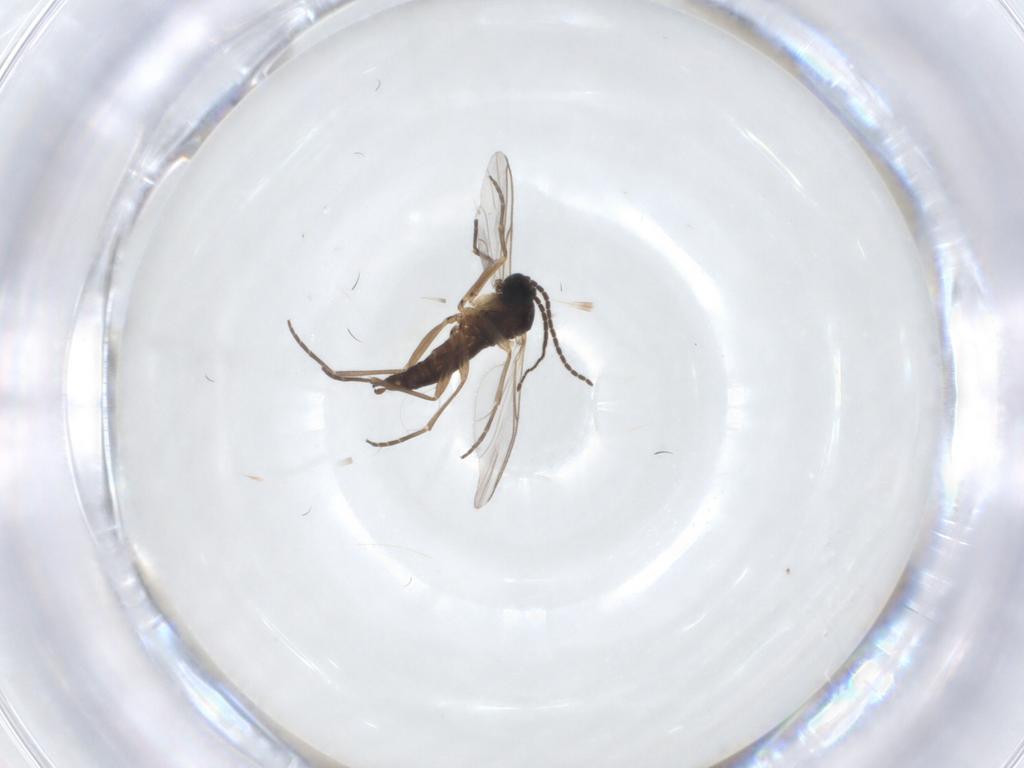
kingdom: Animalia
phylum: Arthropoda
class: Insecta
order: Diptera
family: Sciaridae
